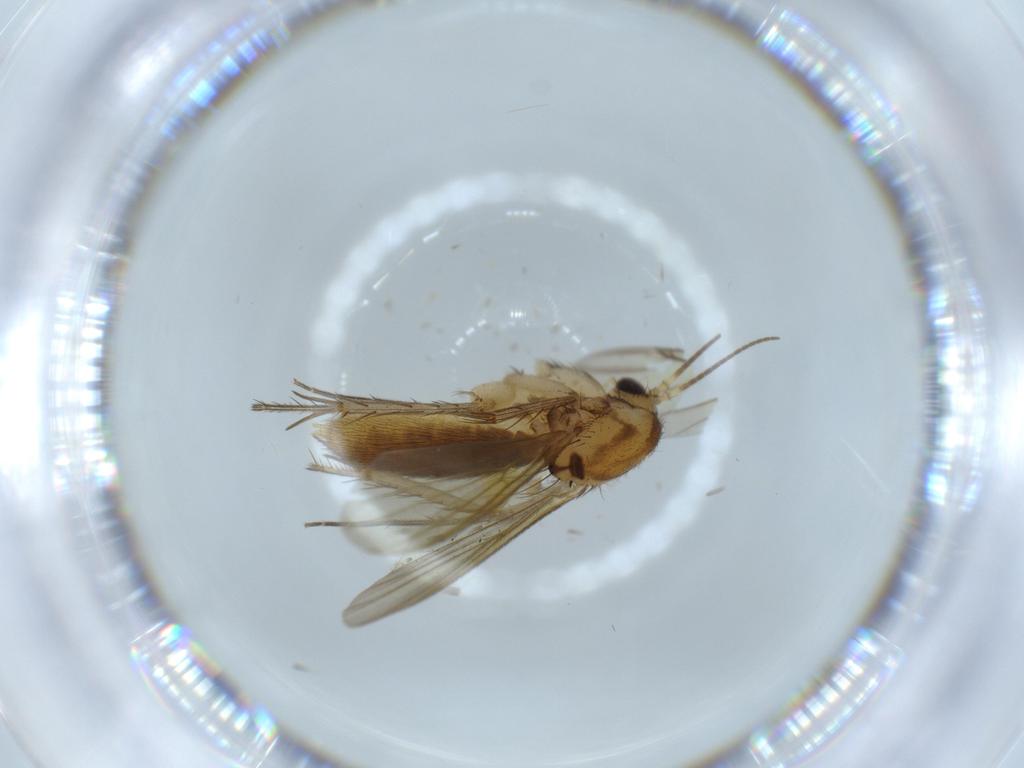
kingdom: Animalia
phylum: Arthropoda
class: Insecta
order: Diptera
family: Mycetophilidae
